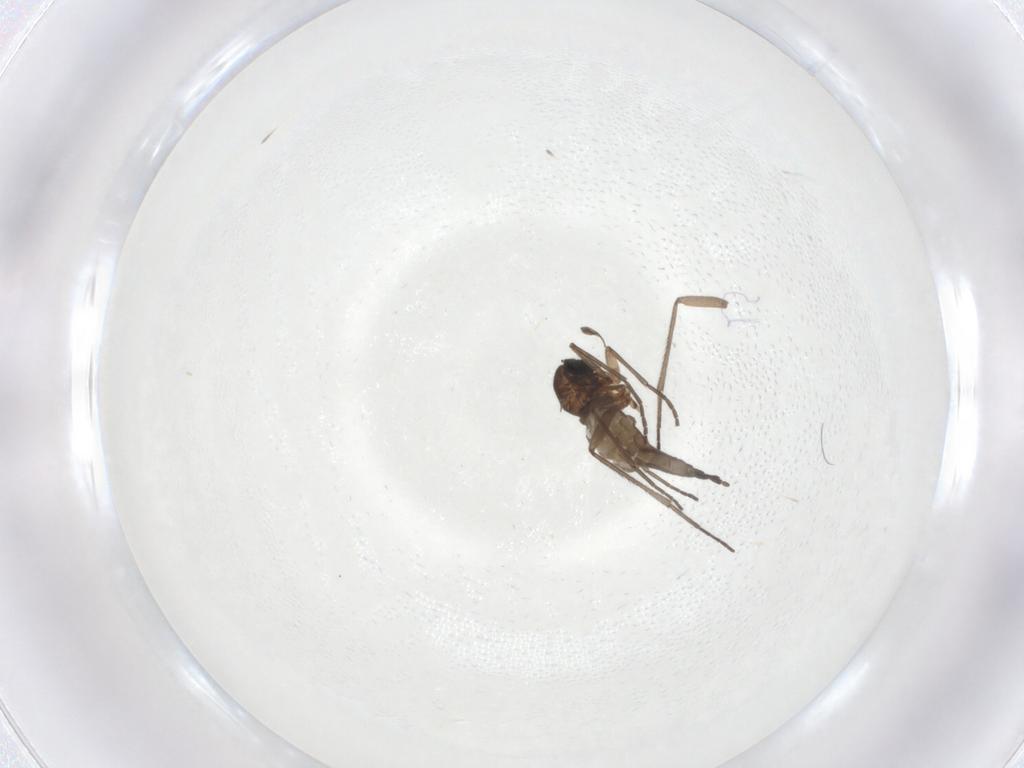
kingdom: Animalia
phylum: Arthropoda
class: Insecta
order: Diptera
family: Sciaridae
